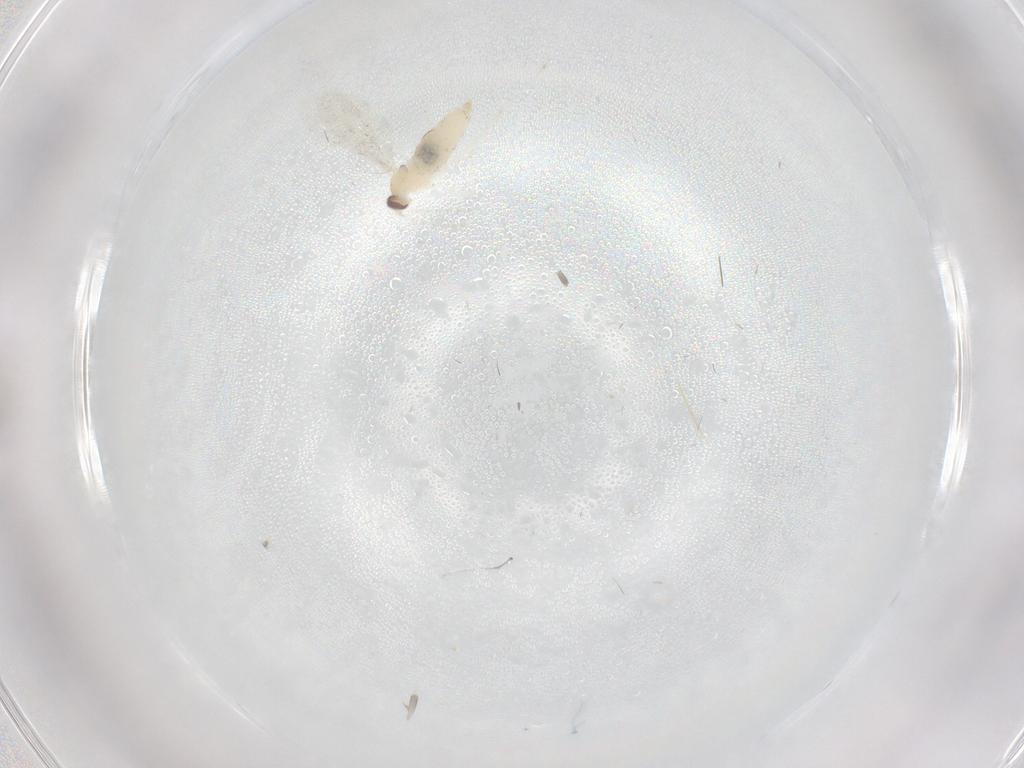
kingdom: Animalia
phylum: Arthropoda
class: Insecta
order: Diptera
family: Cecidomyiidae
